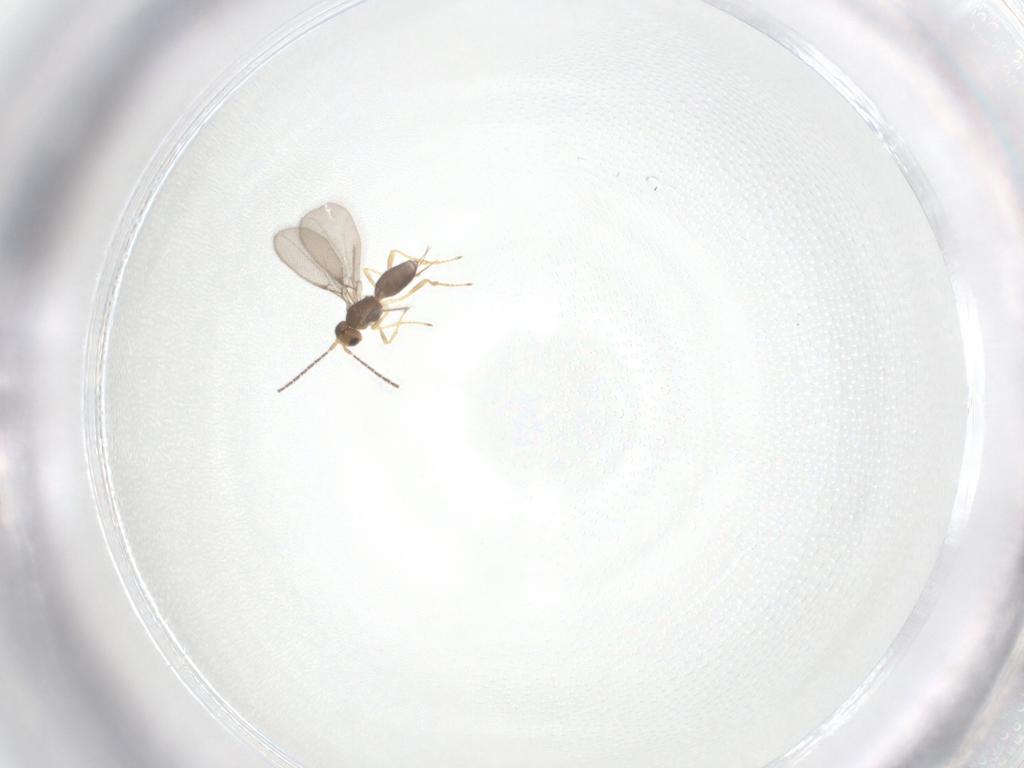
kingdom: Animalia
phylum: Arthropoda
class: Insecta
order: Hymenoptera
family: Braconidae
